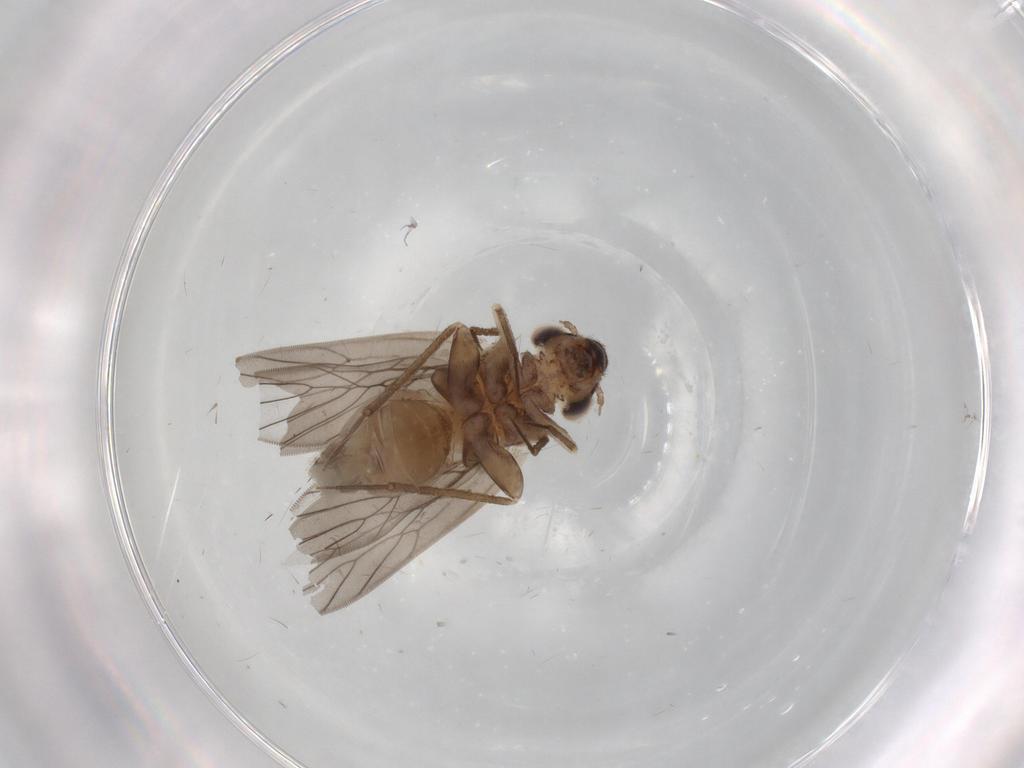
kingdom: Animalia
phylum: Arthropoda
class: Insecta
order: Psocodea
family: Lepidopsocidae
